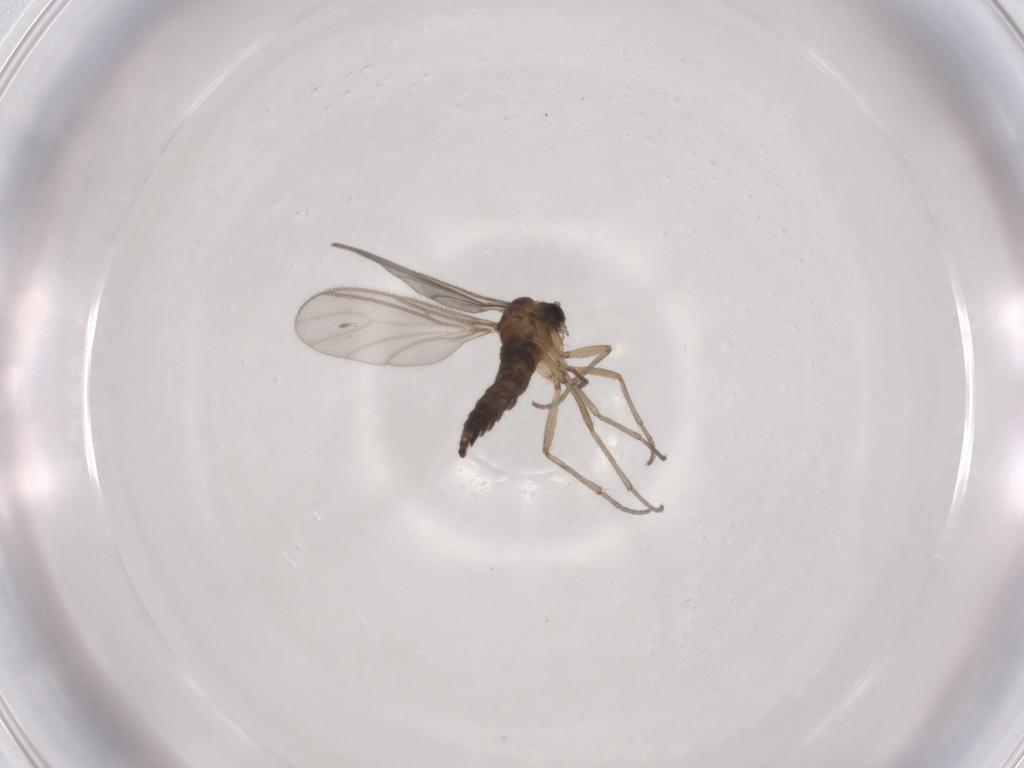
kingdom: Animalia
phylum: Arthropoda
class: Insecta
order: Diptera
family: Sciaridae
